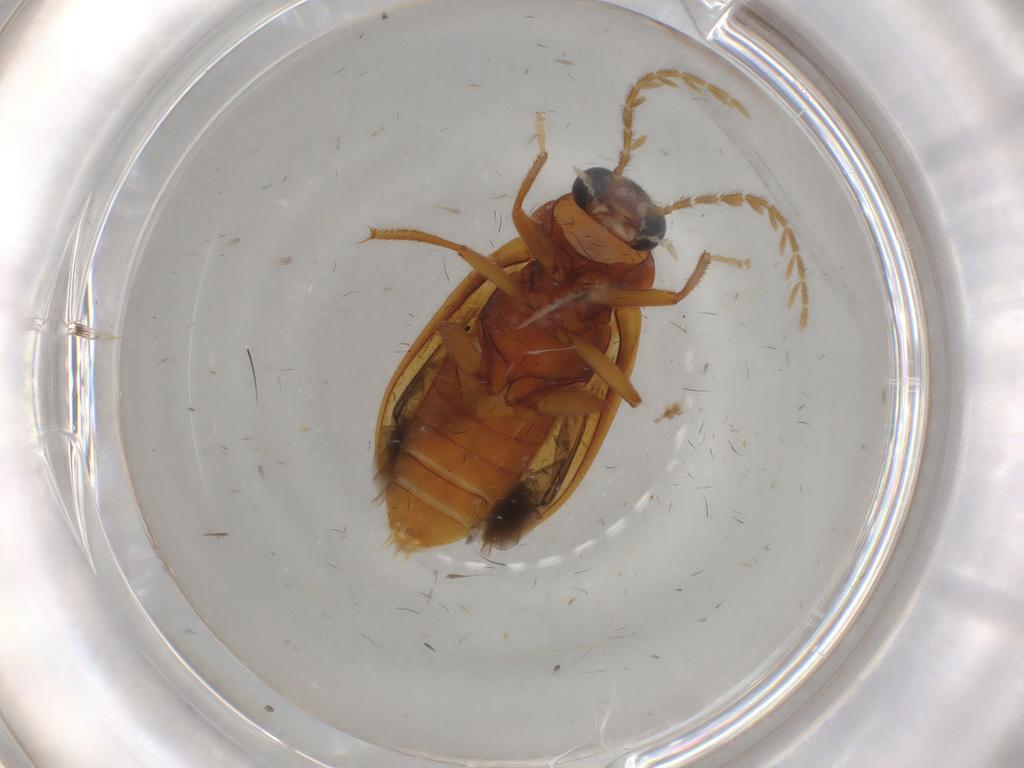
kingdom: Animalia
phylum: Arthropoda
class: Insecta
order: Coleoptera
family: Ptilodactylidae
